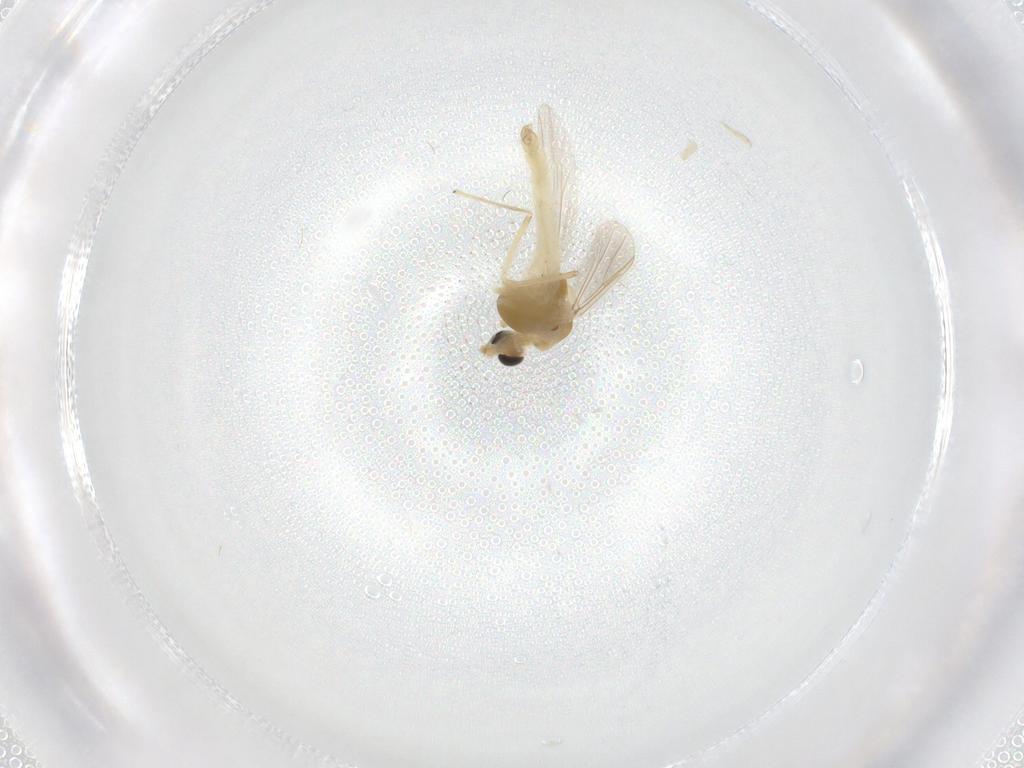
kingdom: Animalia
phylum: Arthropoda
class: Insecta
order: Diptera
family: Chironomidae
